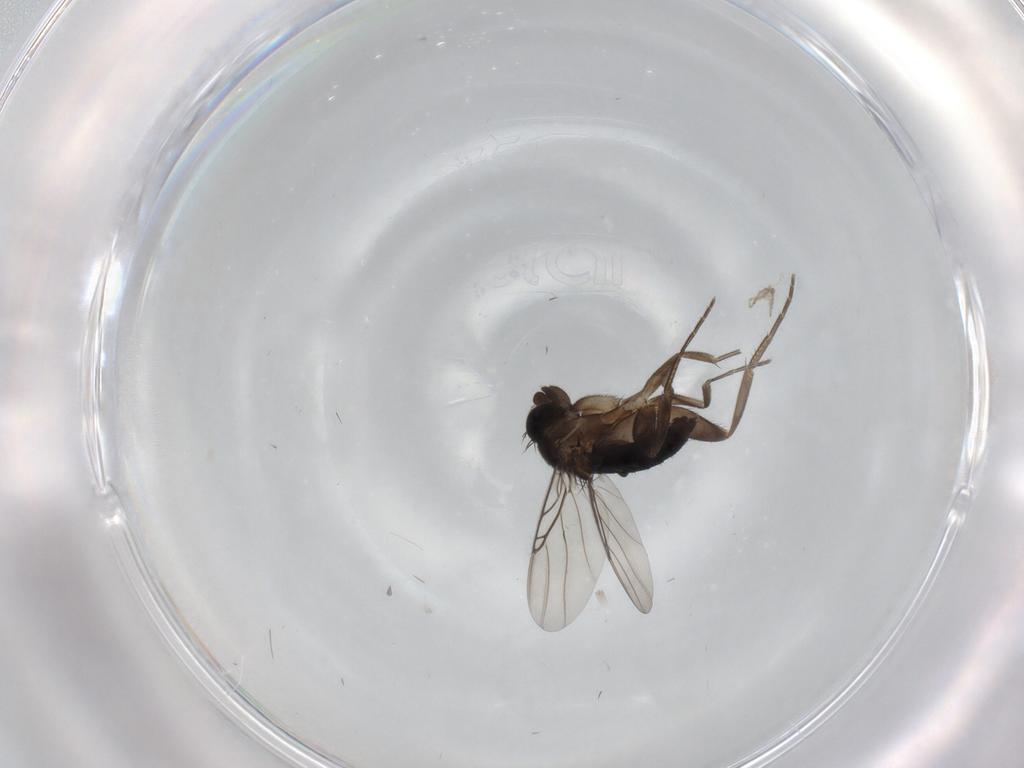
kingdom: Animalia
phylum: Arthropoda
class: Insecta
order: Diptera
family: Phoridae
